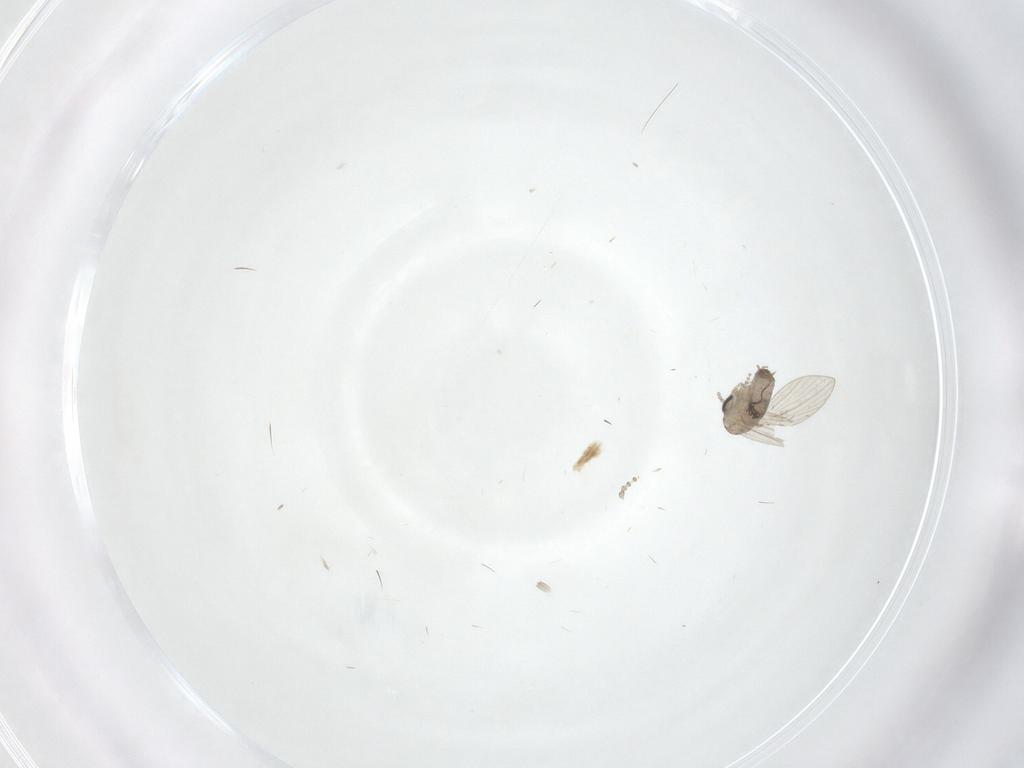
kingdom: Animalia
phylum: Arthropoda
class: Insecta
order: Diptera
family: Psychodidae
